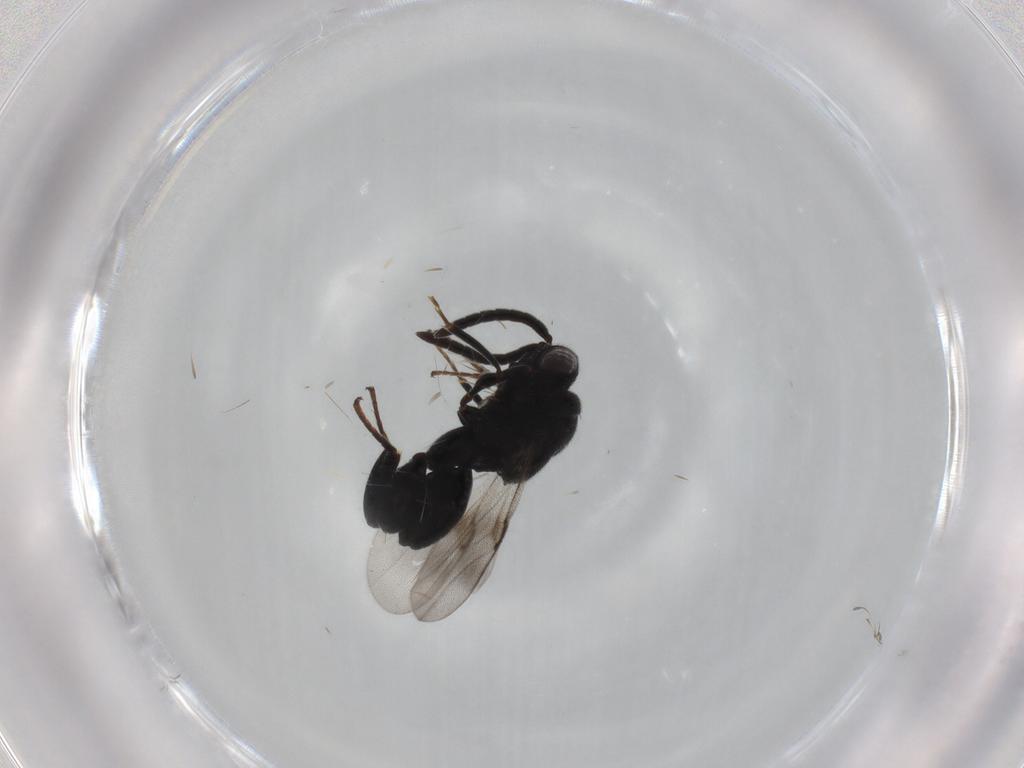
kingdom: Animalia
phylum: Arthropoda
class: Insecta
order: Hymenoptera
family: Chalcididae
